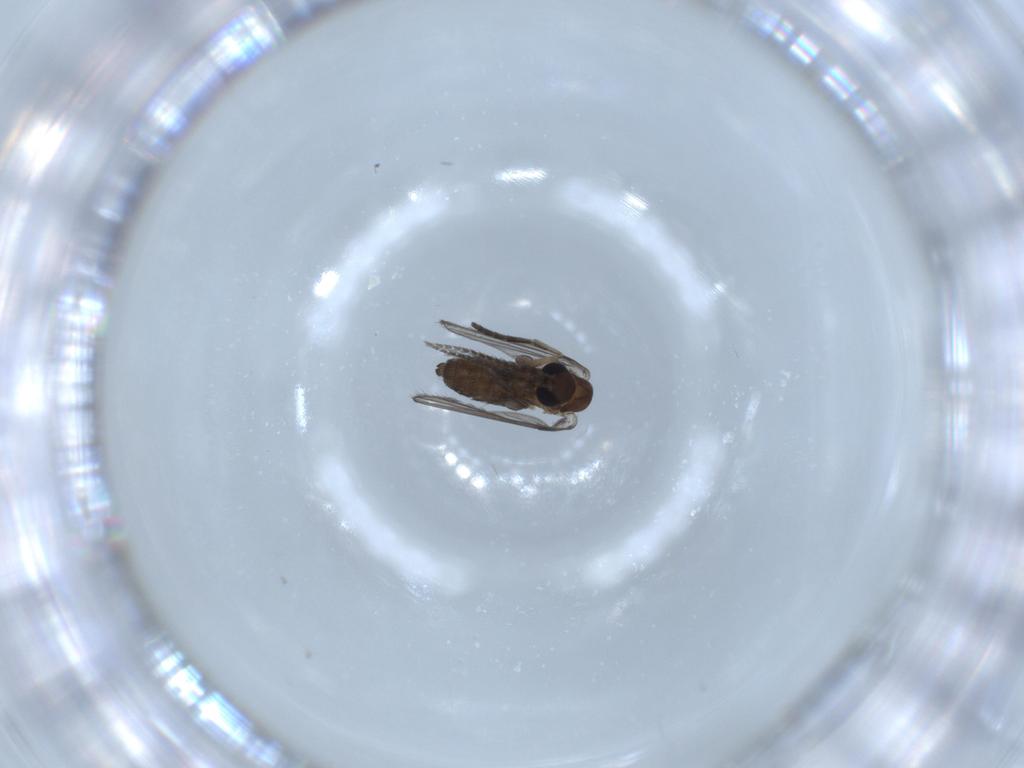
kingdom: Animalia
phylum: Arthropoda
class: Insecta
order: Diptera
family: Psychodidae
